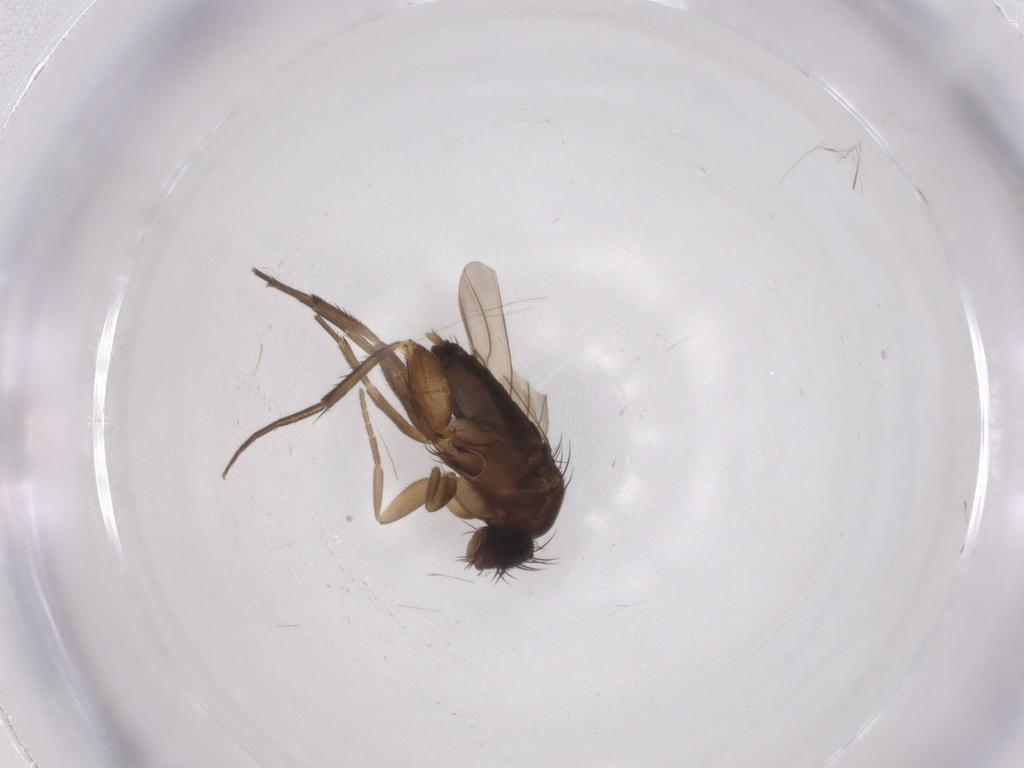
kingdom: Animalia
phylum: Arthropoda
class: Insecta
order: Diptera
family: Phoridae
